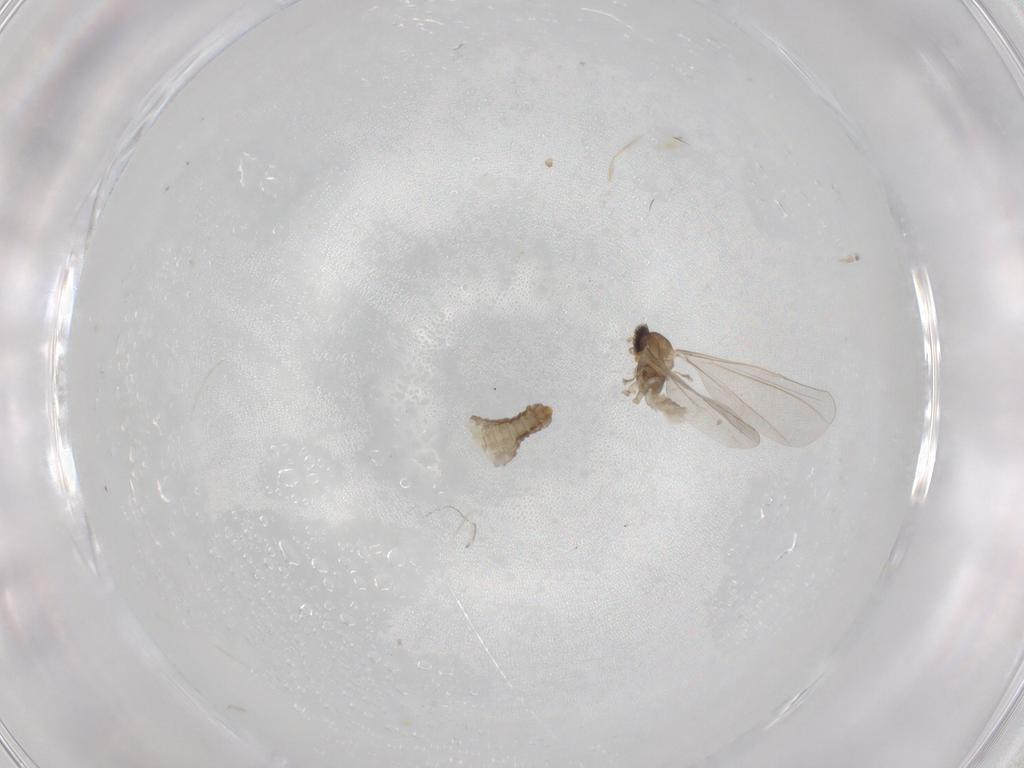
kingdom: Animalia
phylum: Arthropoda
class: Insecta
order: Diptera
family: Cecidomyiidae
